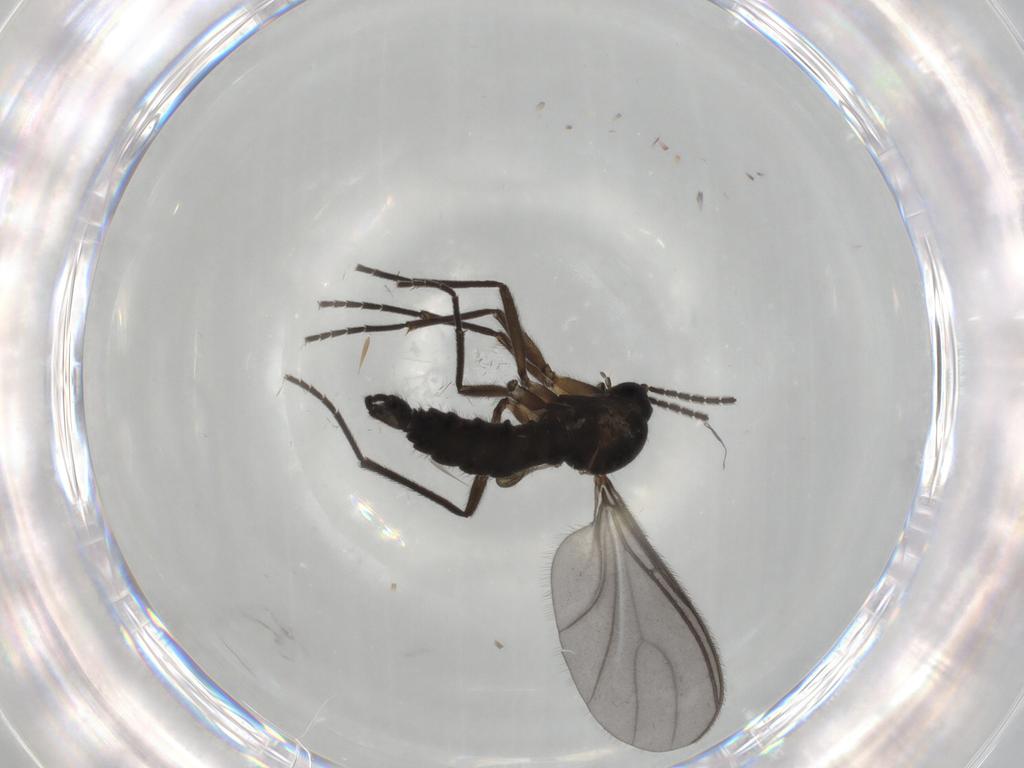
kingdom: Animalia
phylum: Arthropoda
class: Insecta
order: Diptera
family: Sciaridae
